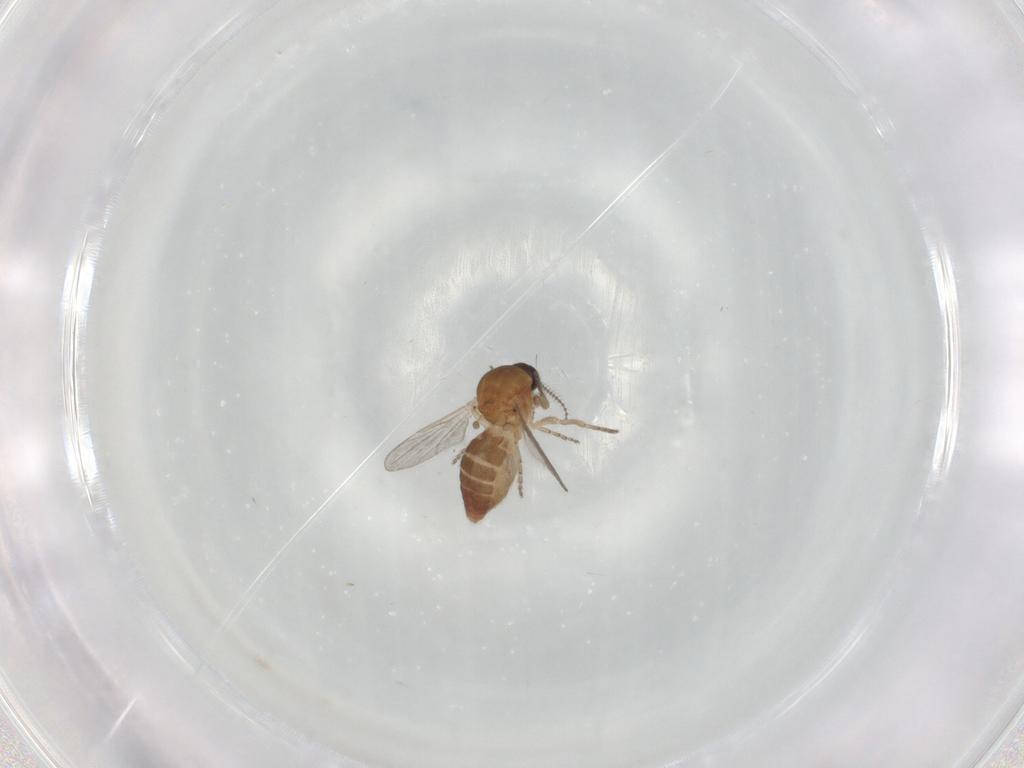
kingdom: Animalia
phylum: Arthropoda
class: Insecta
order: Diptera
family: Ceratopogonidae
